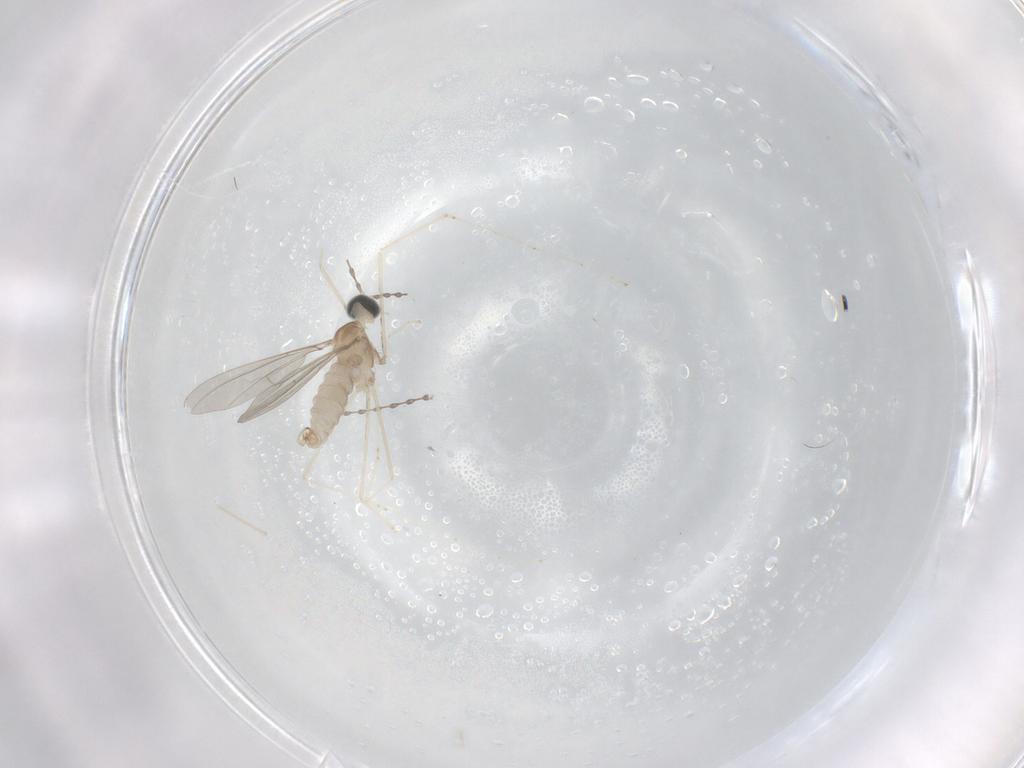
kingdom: Animalia
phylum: Arthropoda
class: Insecta
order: Diptera
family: Cecidomyiidae
